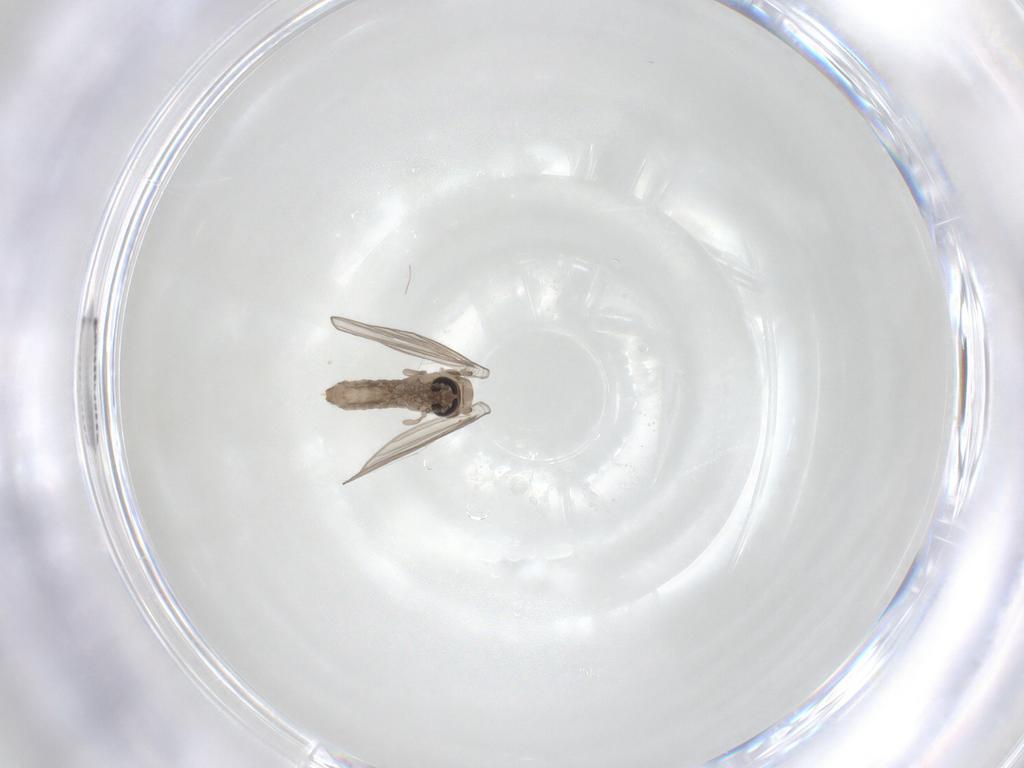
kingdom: Animalia
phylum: Arthropoda
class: Insecta
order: Diptera
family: Psychodidae
